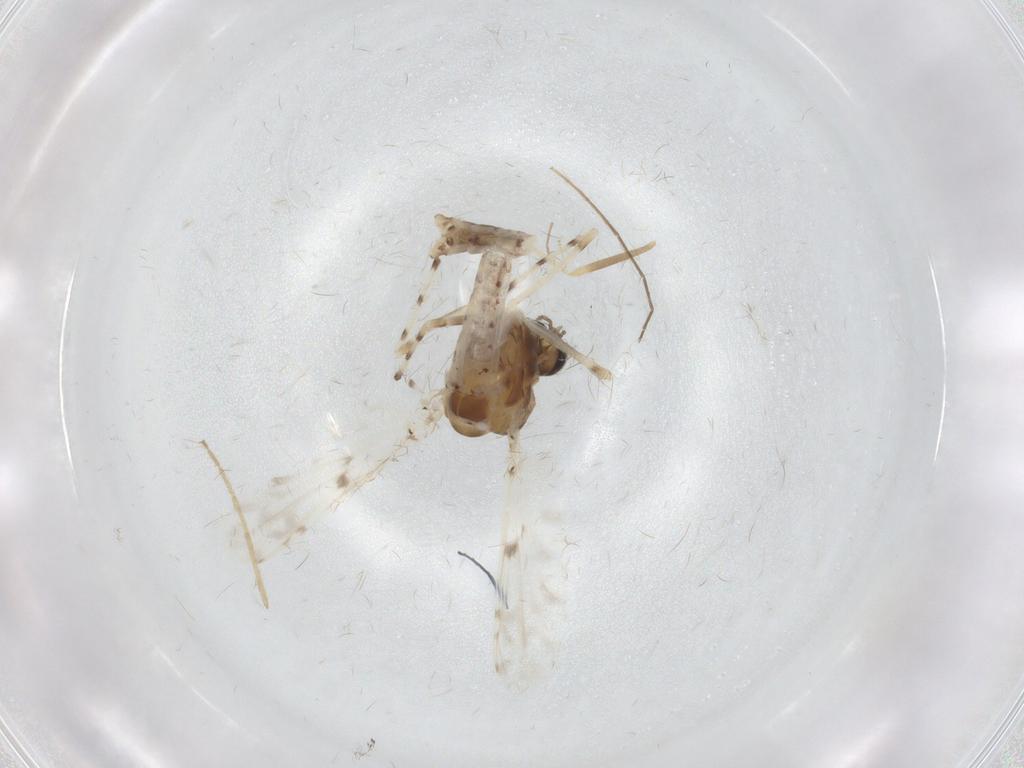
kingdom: Animalia
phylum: Arthropoda
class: Insecta
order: Diptera
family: Chironomidae
